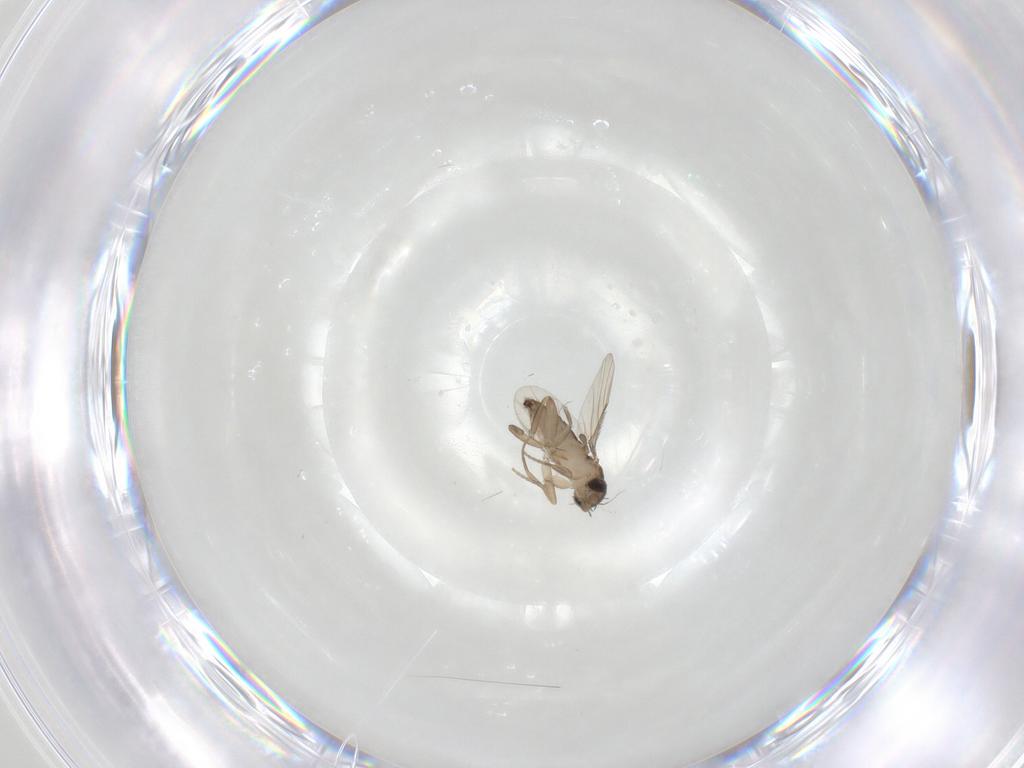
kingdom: Animalia
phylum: Arthropoda
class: Insecta
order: Diptera
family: Phoridae
